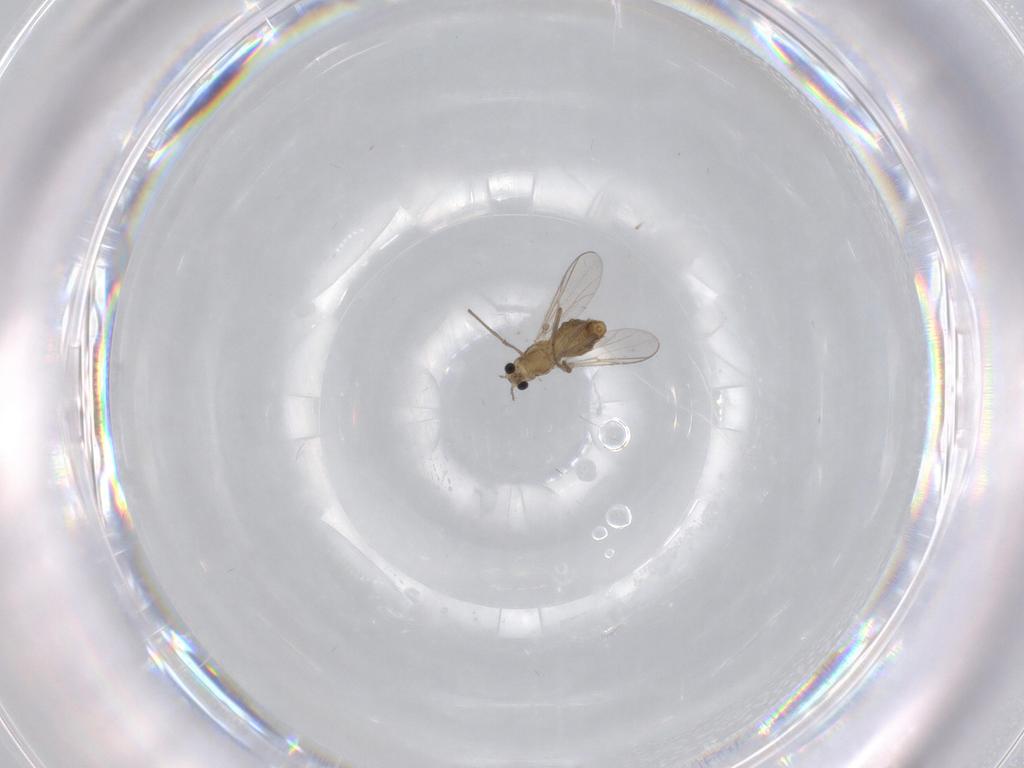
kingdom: Animalia
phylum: Arthropoda
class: Insecta
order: Diptera
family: Chironomidae
